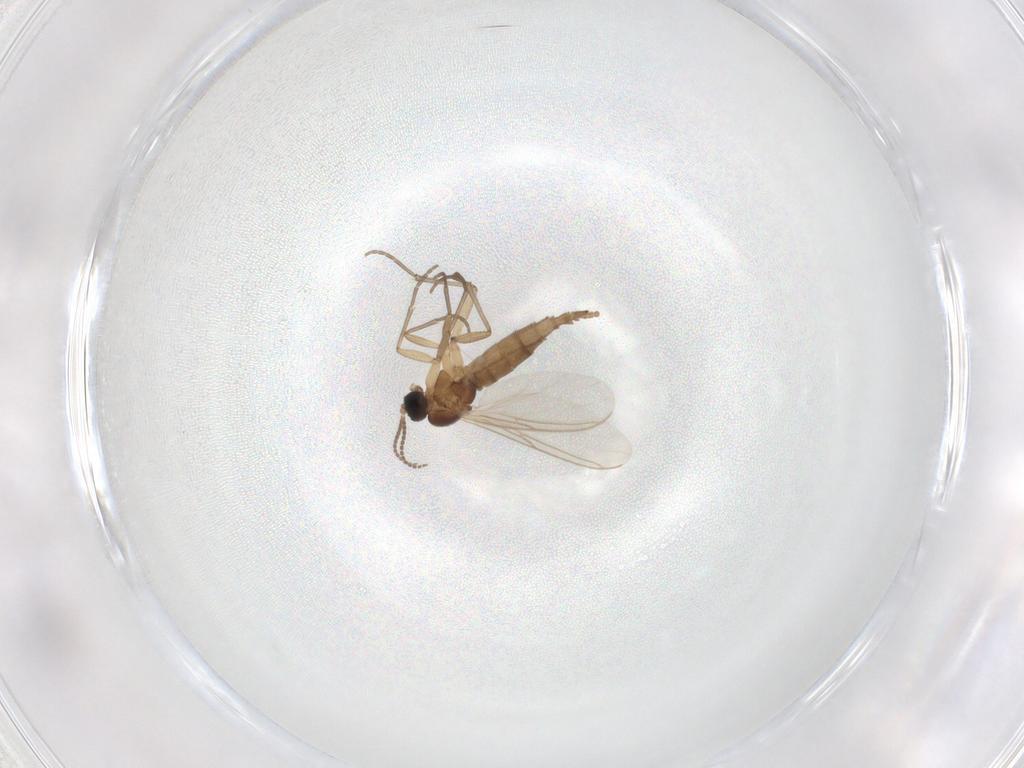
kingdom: Animalia
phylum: Arthropoda
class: Insecta
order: Diptera
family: Sciaridae
